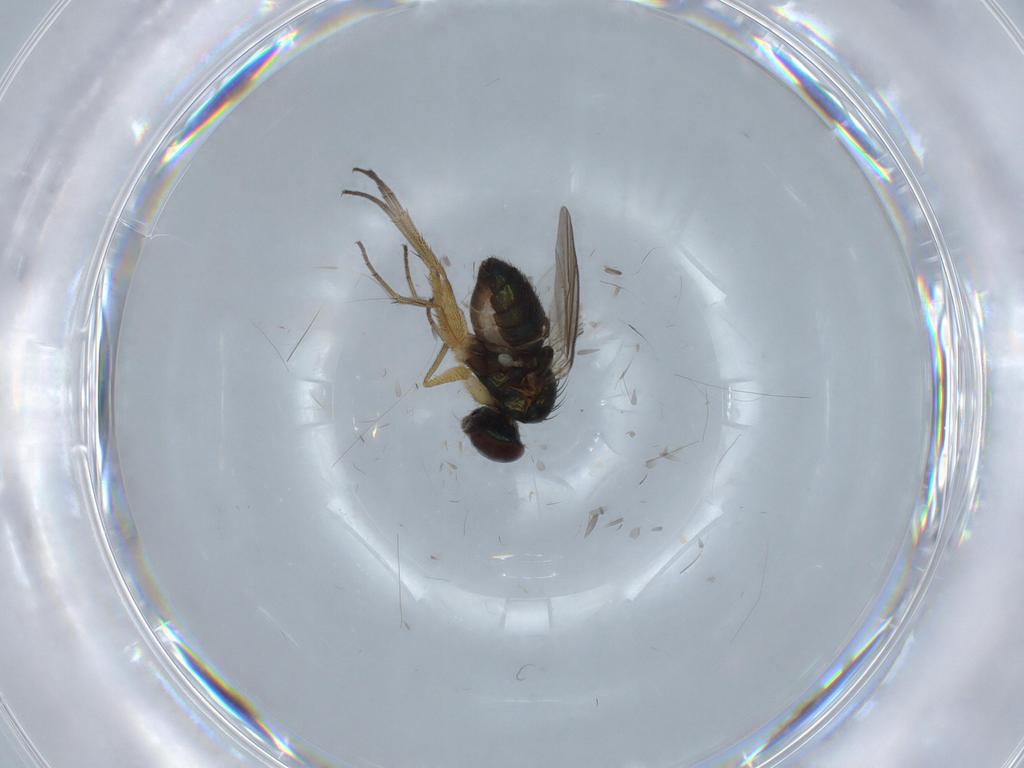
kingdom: Animalia
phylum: Arthropoda
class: Insecta
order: Diptera
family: Dolichopodidae
